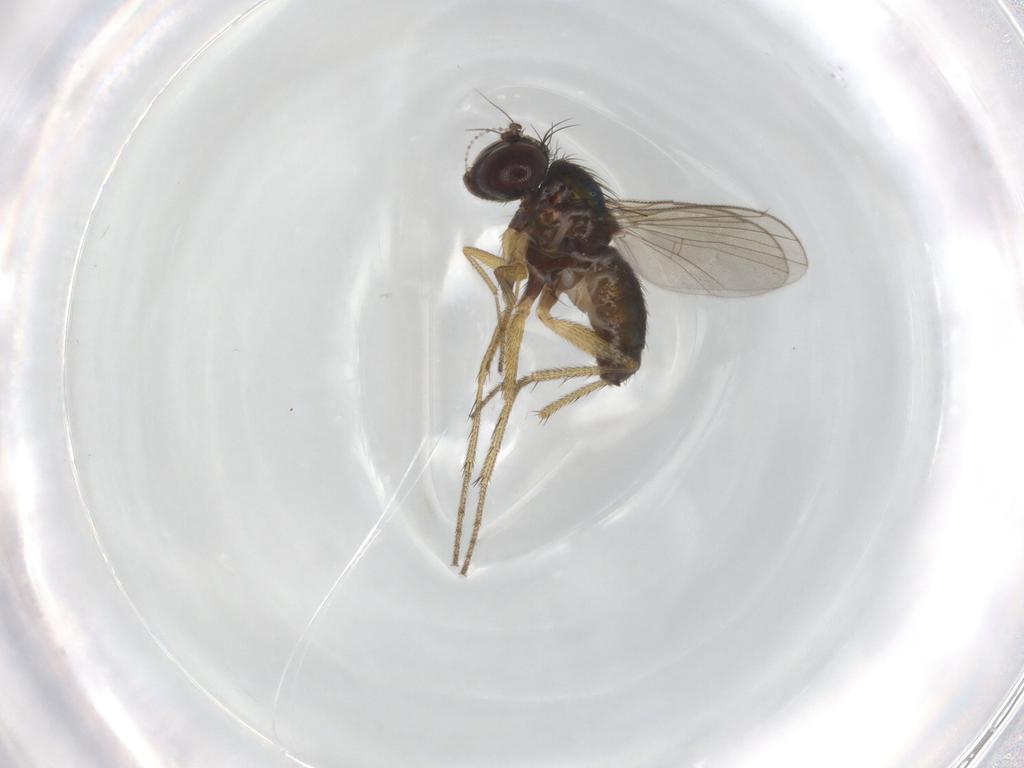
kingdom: Animalia
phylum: Arthropoda
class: Insecta
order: Diptera
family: Cecidomyiidae
